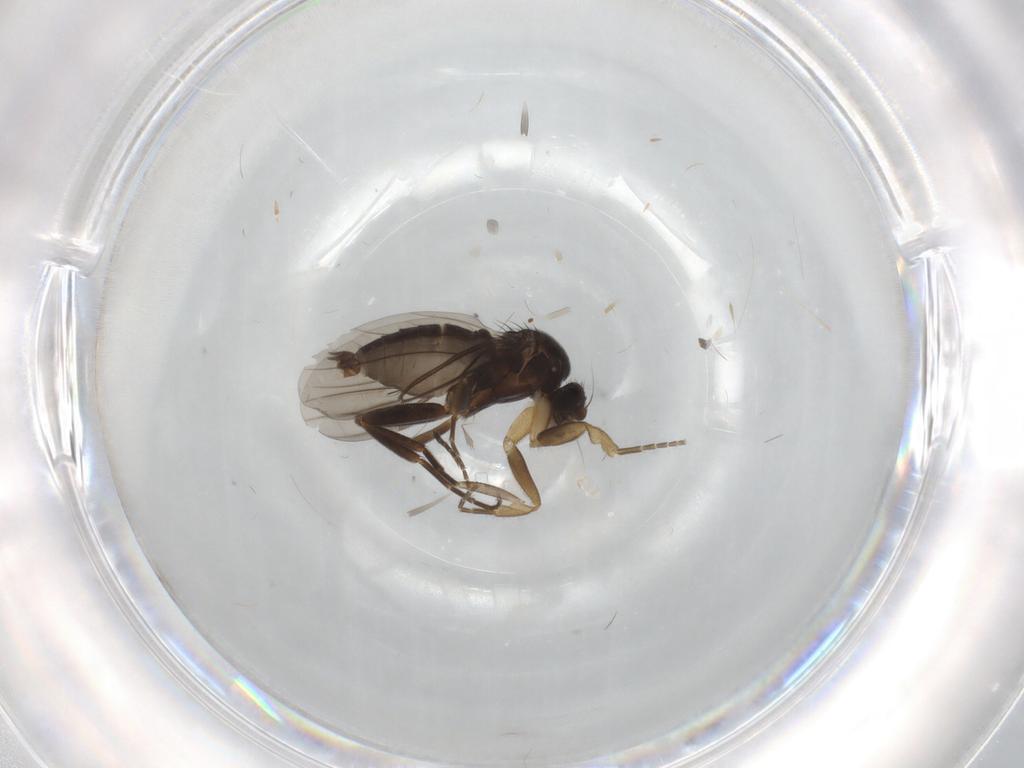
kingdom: Animalia
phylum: Arthropoda
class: Insecta
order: Diptera
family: Phoridae
